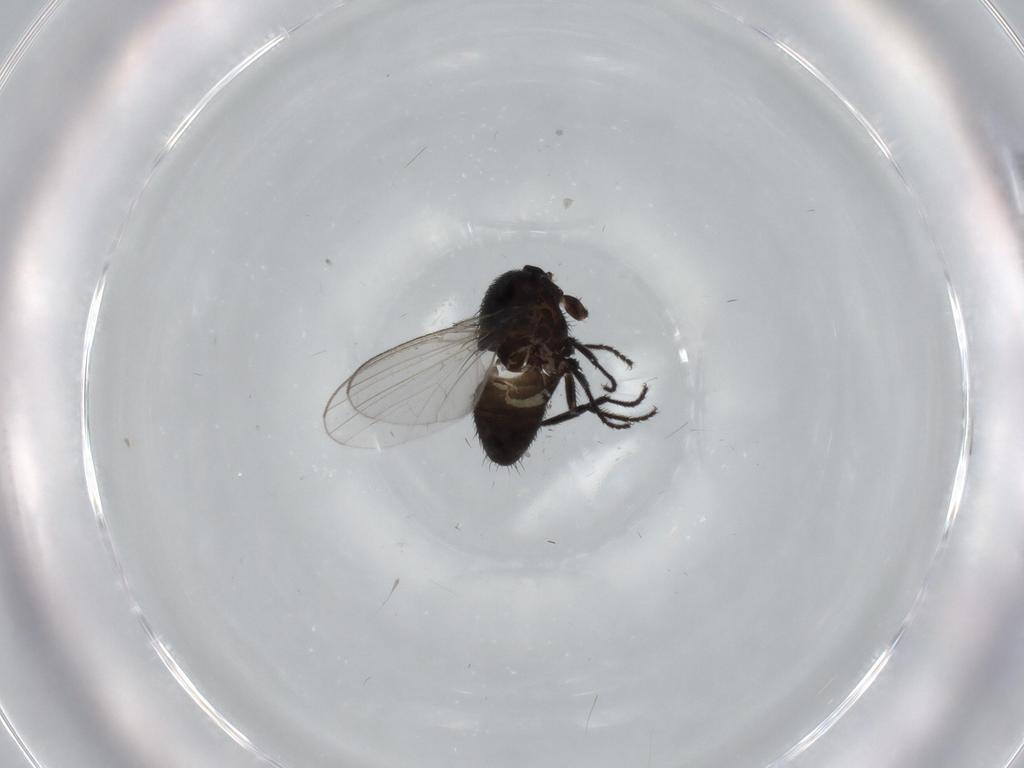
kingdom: Animalia
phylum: Arthropoda
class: Insecta
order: Diptera
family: Milichiidae
